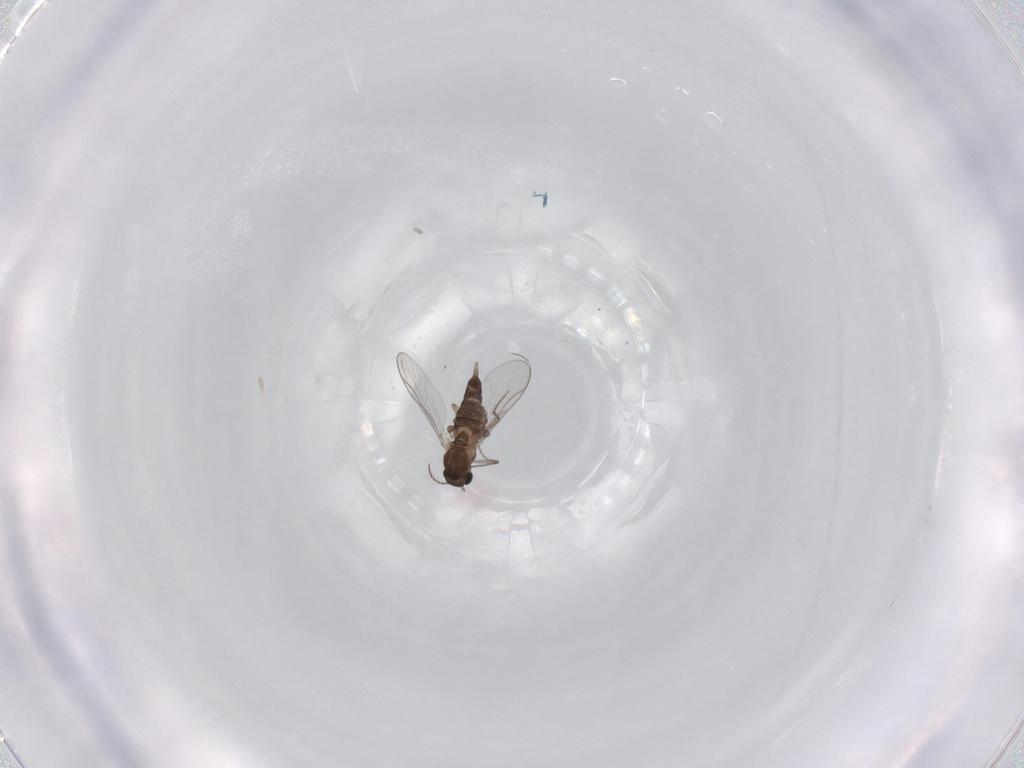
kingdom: Animalia
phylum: Arthropoda
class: Insecta
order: Diptera
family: Chironomidae
